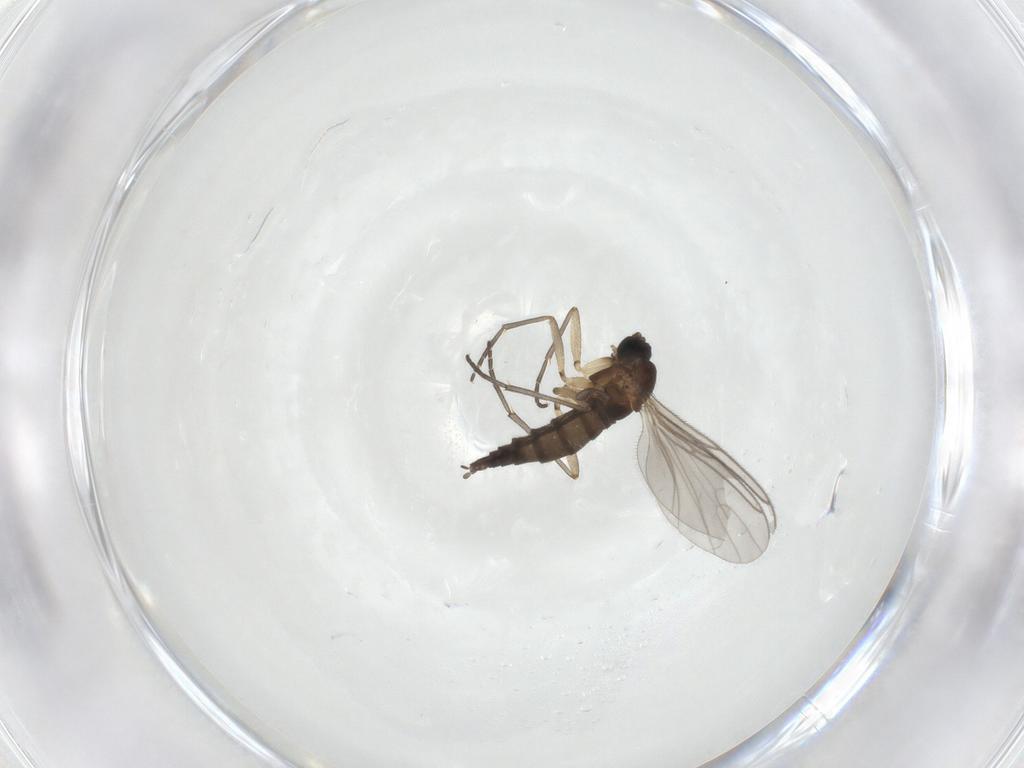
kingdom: Animalia
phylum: Arthropoda
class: Insecta
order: Diptera
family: Sciaridae
